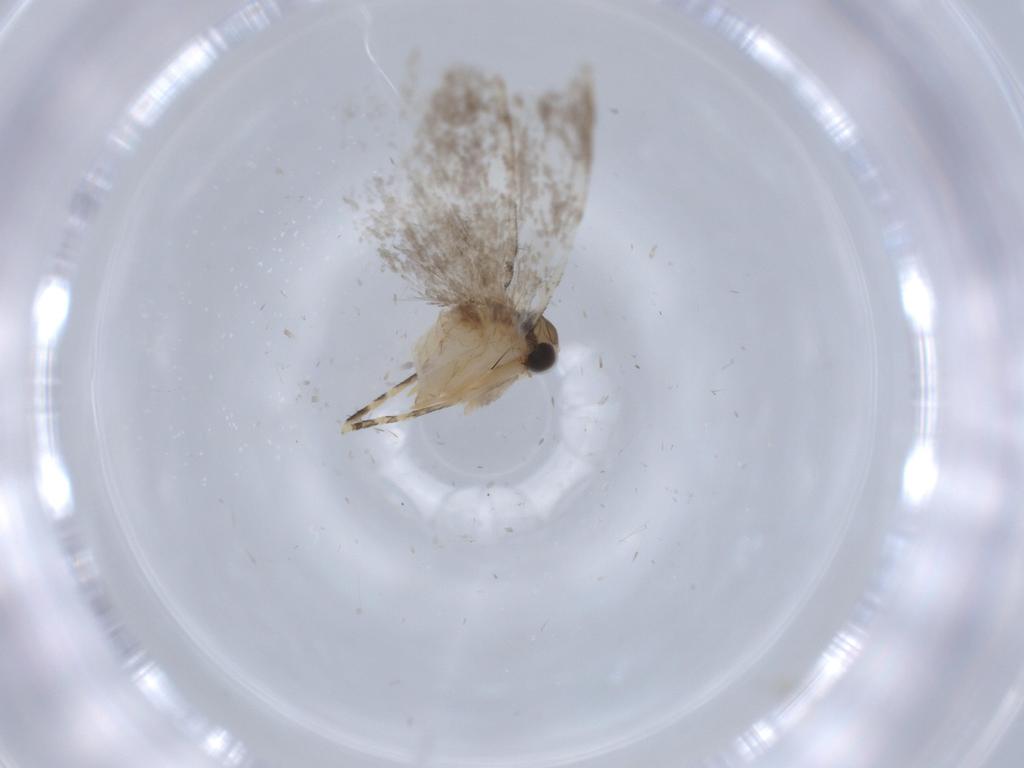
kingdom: Animalia
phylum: Arthropoda
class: Insecta
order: Lepidoptera
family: Tineidae
